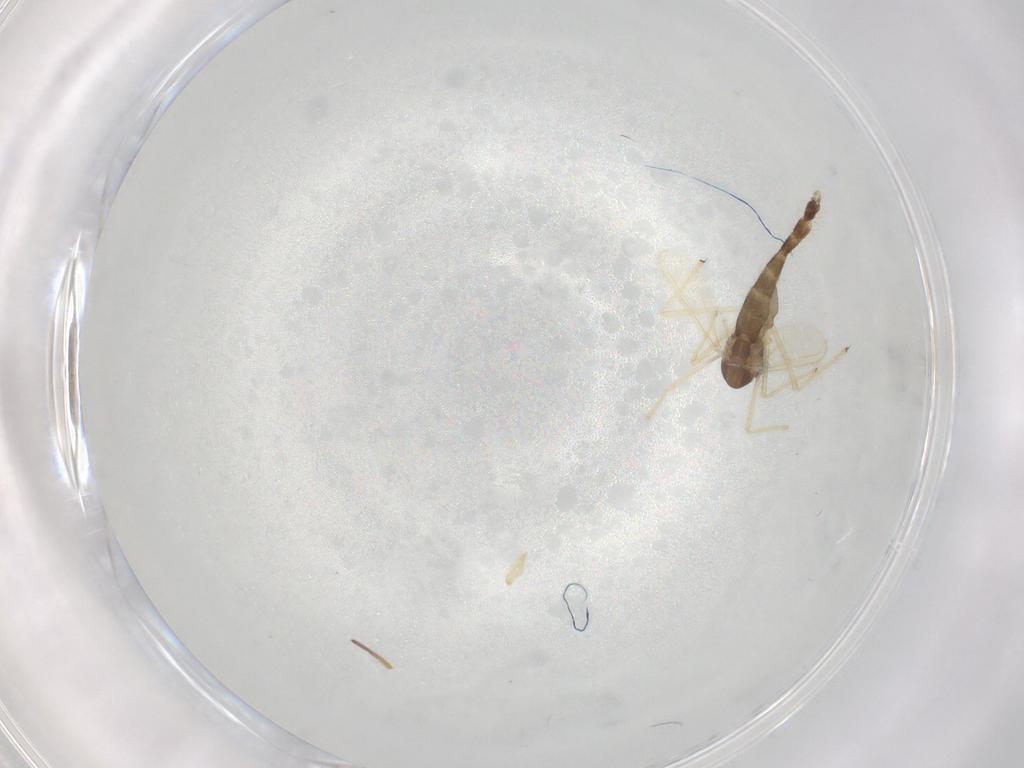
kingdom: Animalia
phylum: Arthropoda
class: Insecta
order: Diptera
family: Chironomidae
